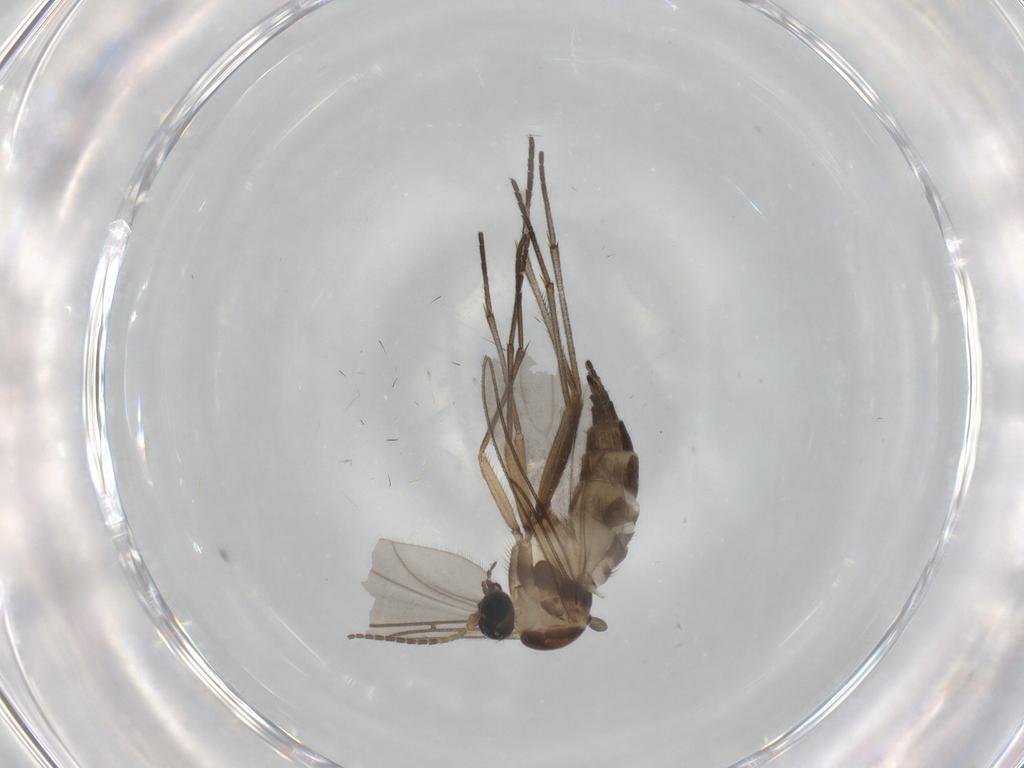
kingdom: Animalia
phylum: Arthropoda
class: Insecta
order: Diptera
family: Sciaridae
